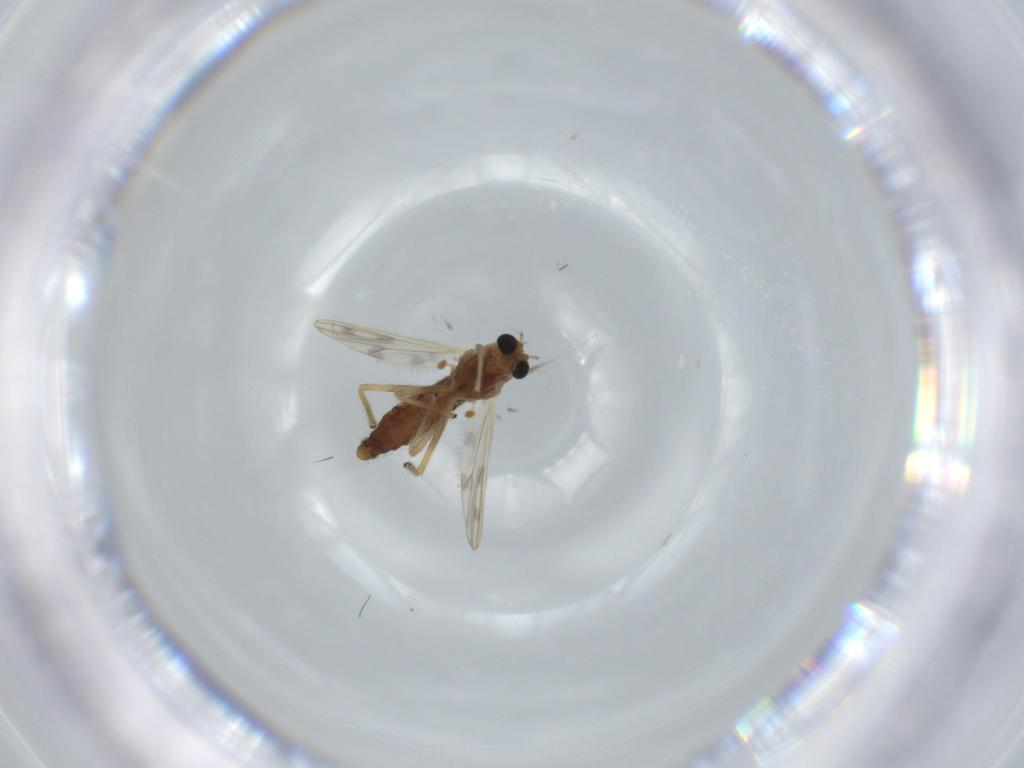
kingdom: Animalia
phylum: Arthropoda
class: Insecta
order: Diptera
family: Chironomidae
